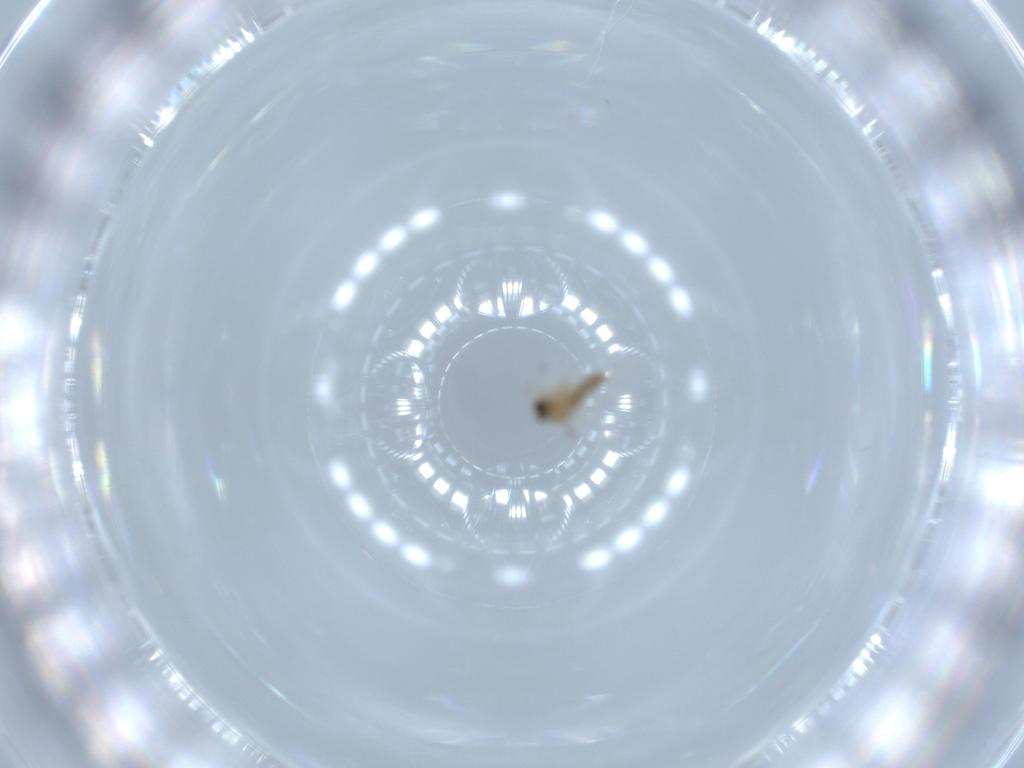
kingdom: Animalia
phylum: Arthropoda
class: Insecta
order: Diptera
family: Cecidomyiidae
